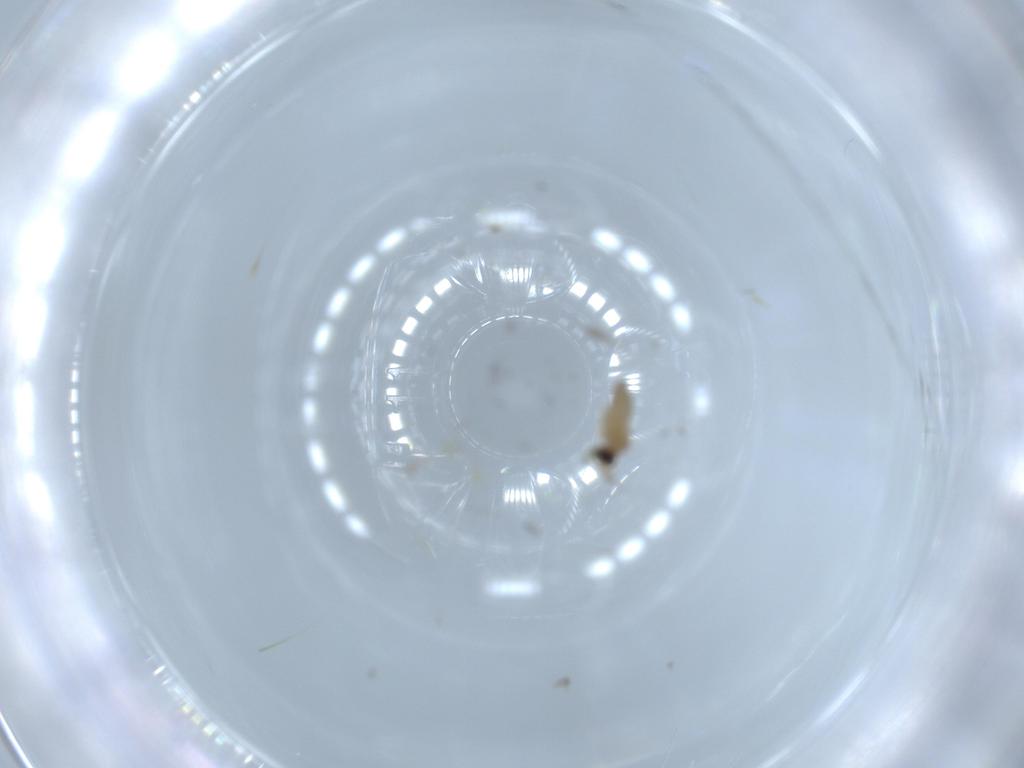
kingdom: Animalia
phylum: Arthropoda
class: Insecta
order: Diptera
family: Cecidomyiidae
